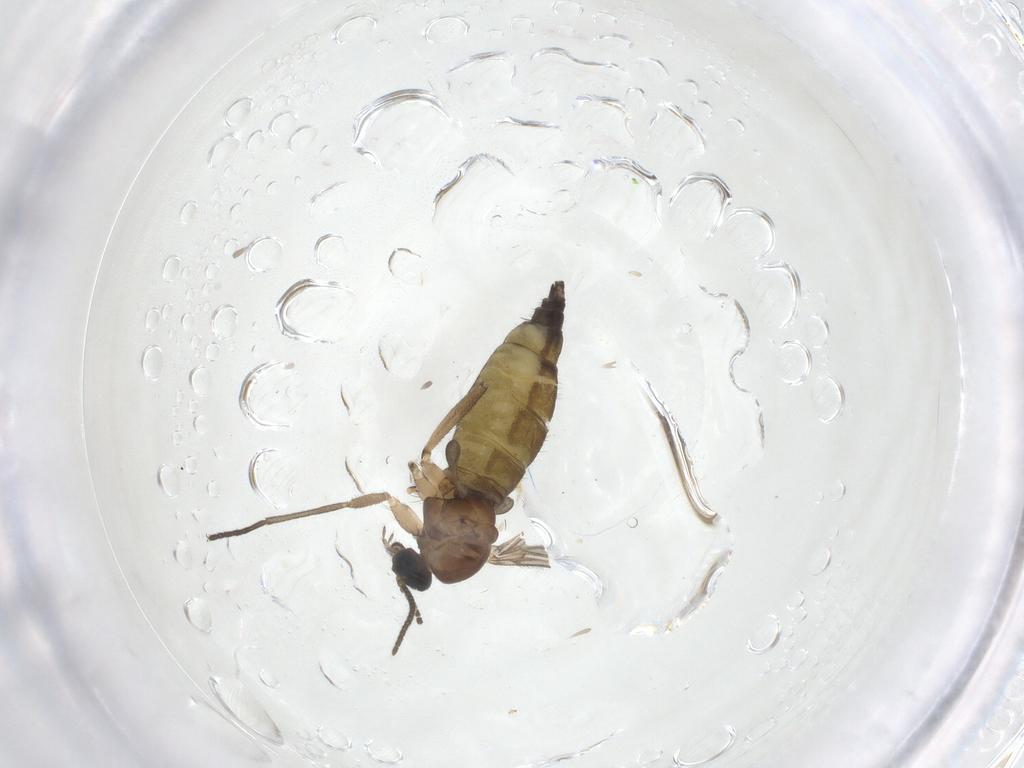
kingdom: Animalia
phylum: Arthropoda
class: Insecta
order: Diptera
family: Sciaridae
